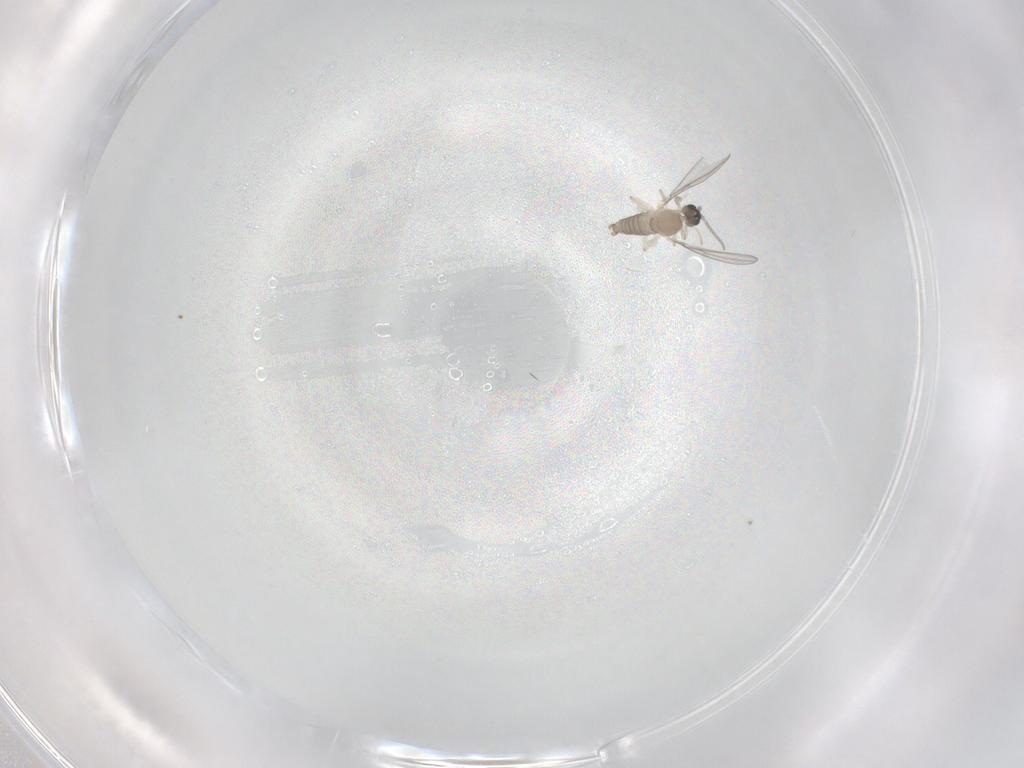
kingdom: Animalia
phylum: Arthropoda
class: Insecta
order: Diptera
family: Cecidomyiidae
